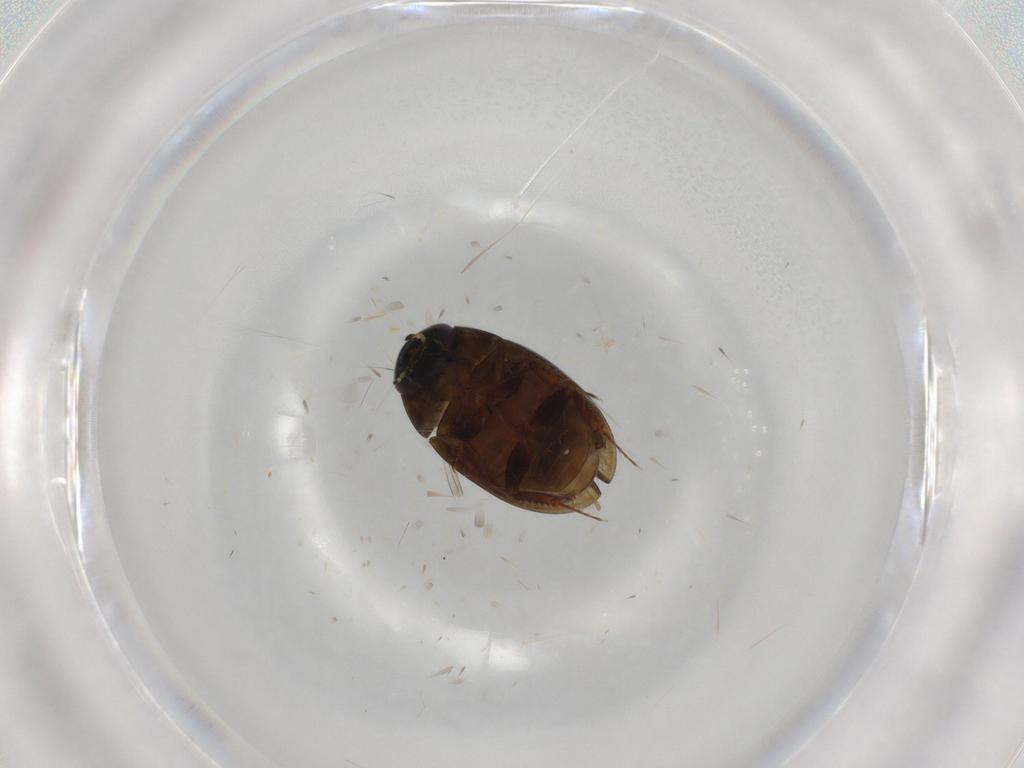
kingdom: Animalia
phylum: Arthropoda
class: Insecta
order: Coleoptera
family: Hydrophilidae
